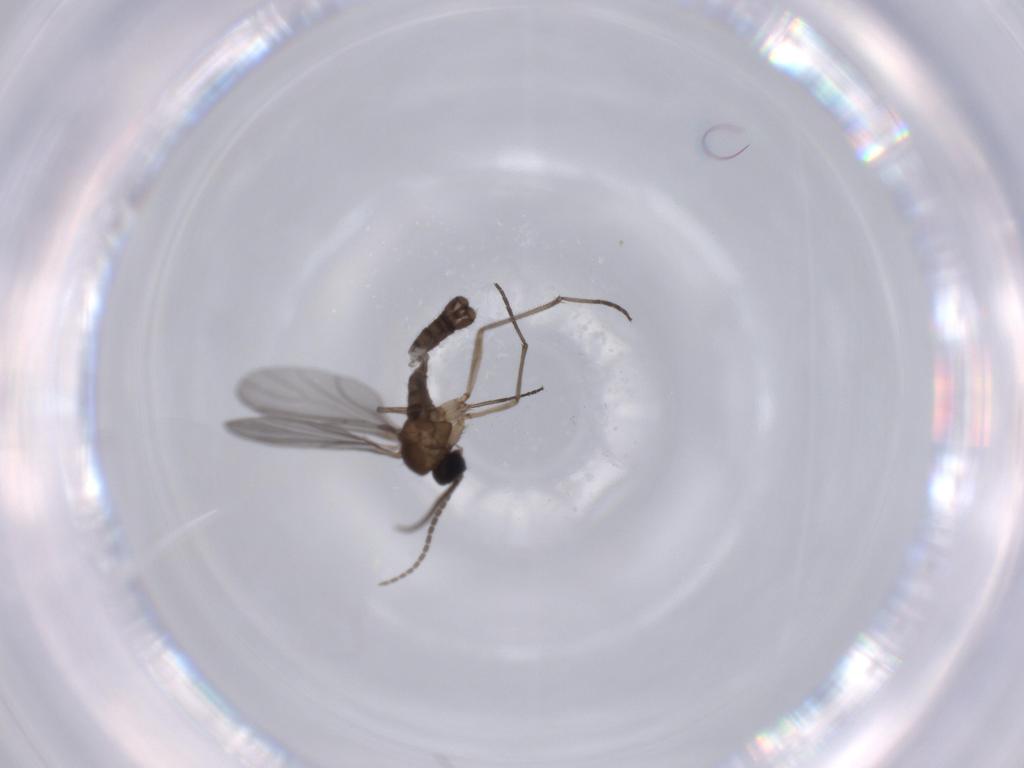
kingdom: Animalia
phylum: Arthropoda
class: Insecta
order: Diptera
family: Sciaridae
